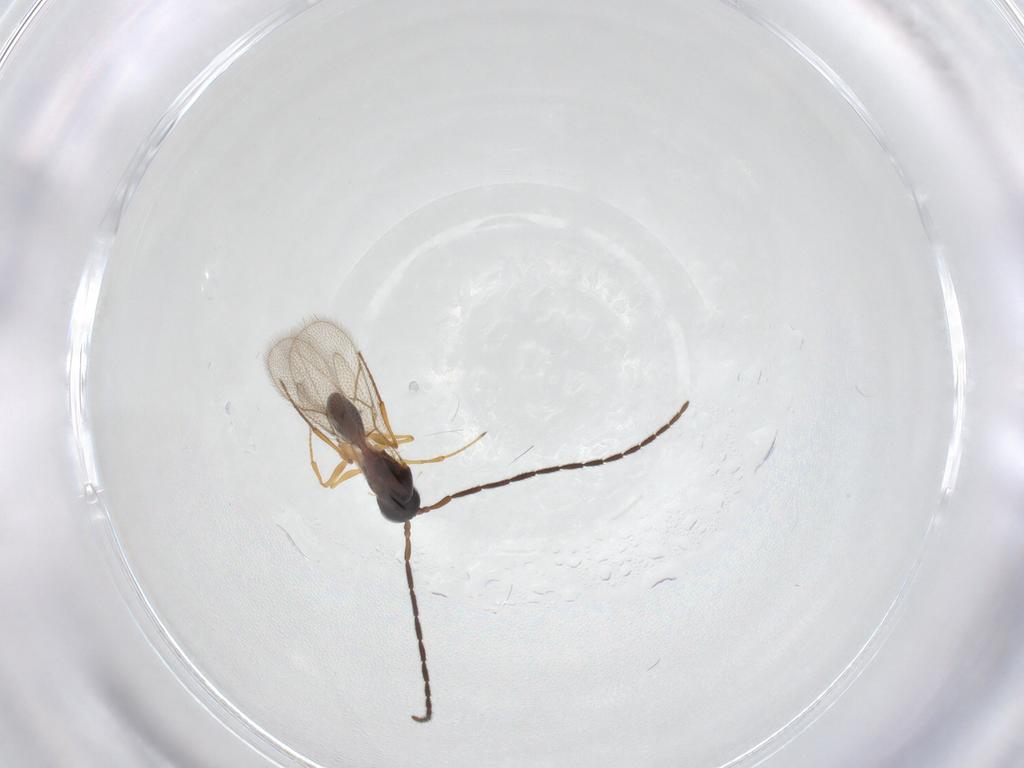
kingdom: Animalia
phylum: Arthropoda
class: Insecta
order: Hymenoptera
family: Figitidae
